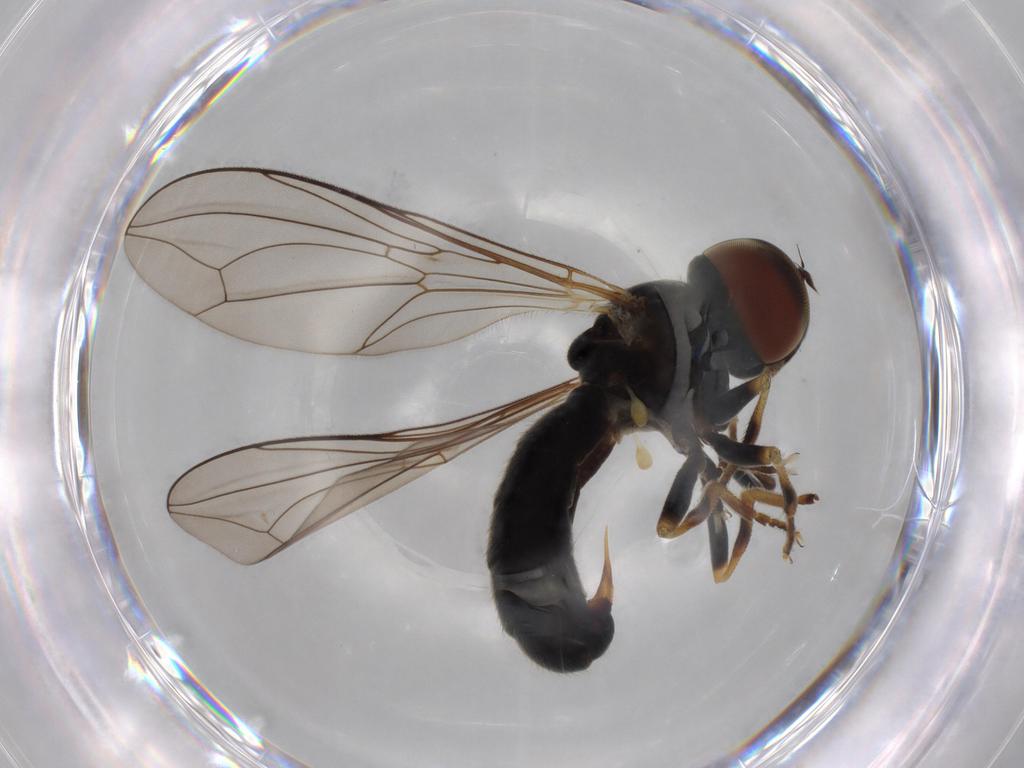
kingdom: Animalia
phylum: Arthropoda
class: Insecta
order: Diptera
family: Pipunculidae
